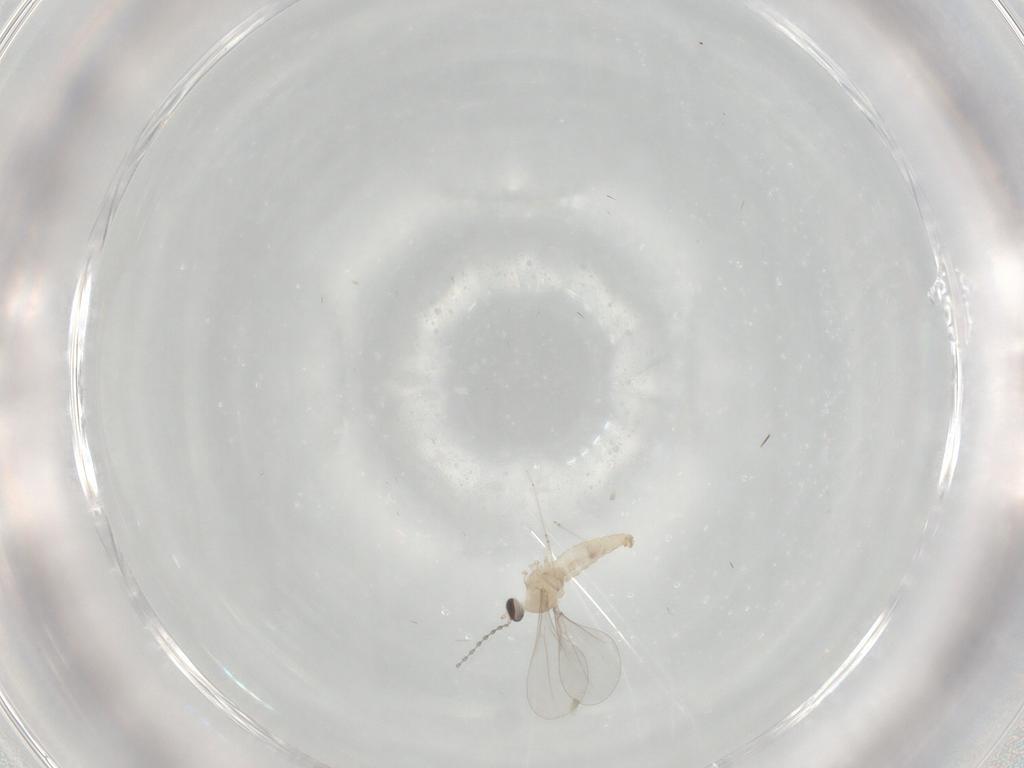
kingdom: Animalia
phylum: Arthropoda
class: Insecta
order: Diptera
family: Cecidomyiidae
